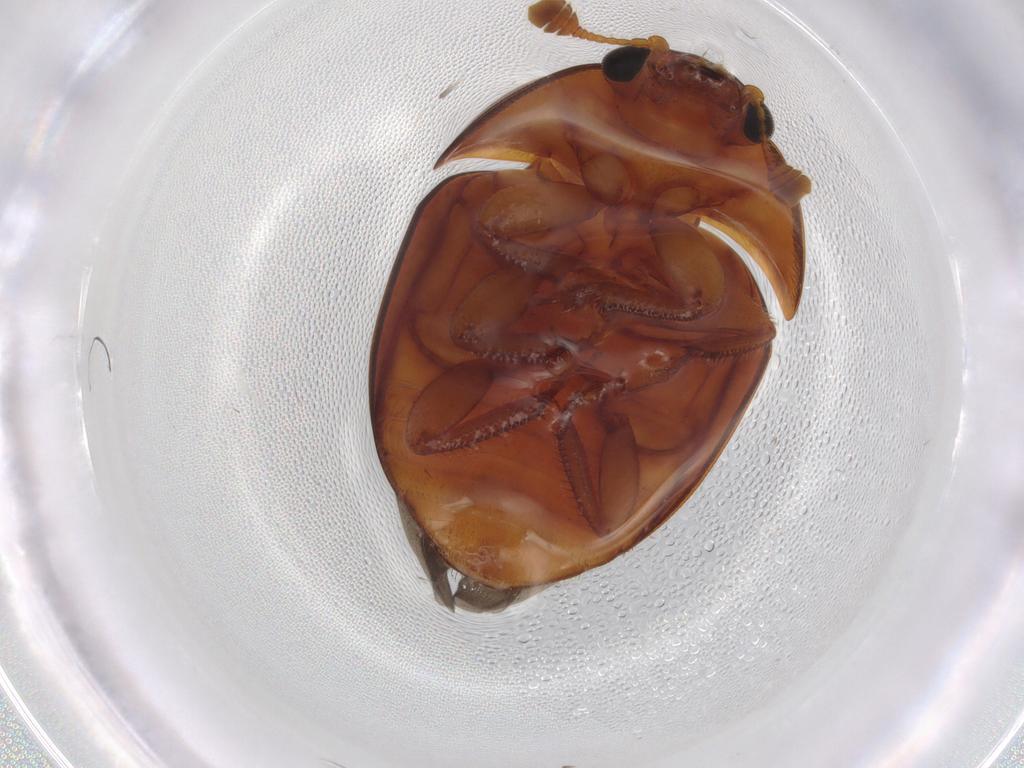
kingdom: Animalia
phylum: Arthropoda
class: Insecta
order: Coleoptera
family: Nitidulidae
